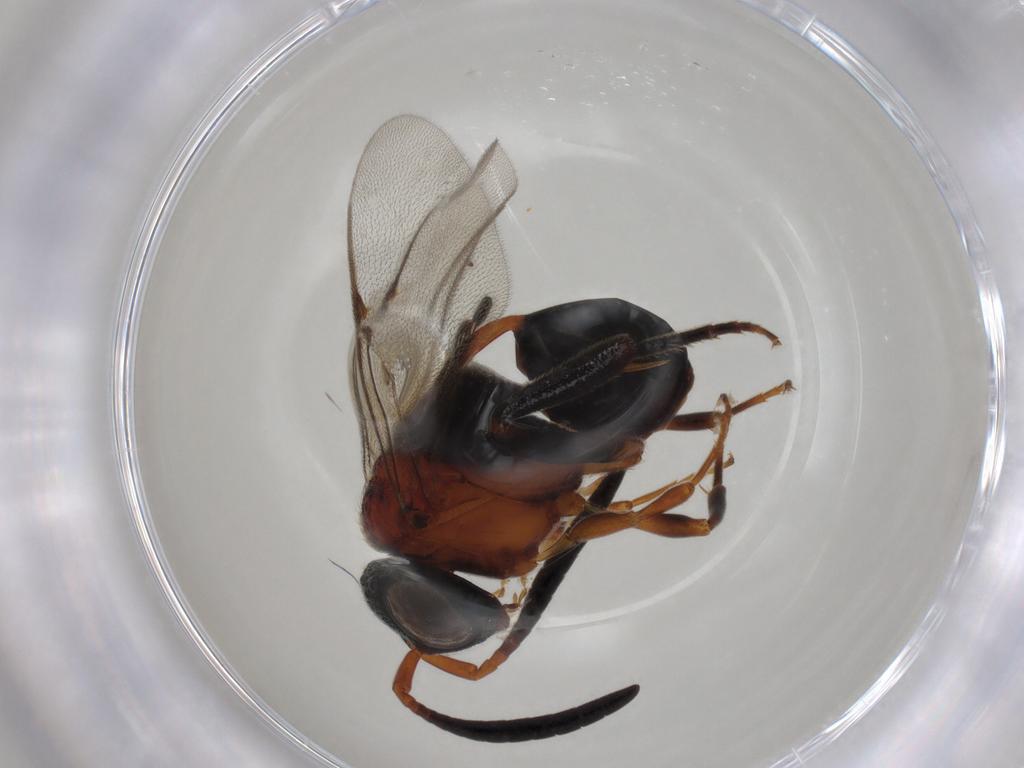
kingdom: Animalia
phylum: Arthropoda
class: Insecta
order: Hymenoptera
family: Evaniidae
